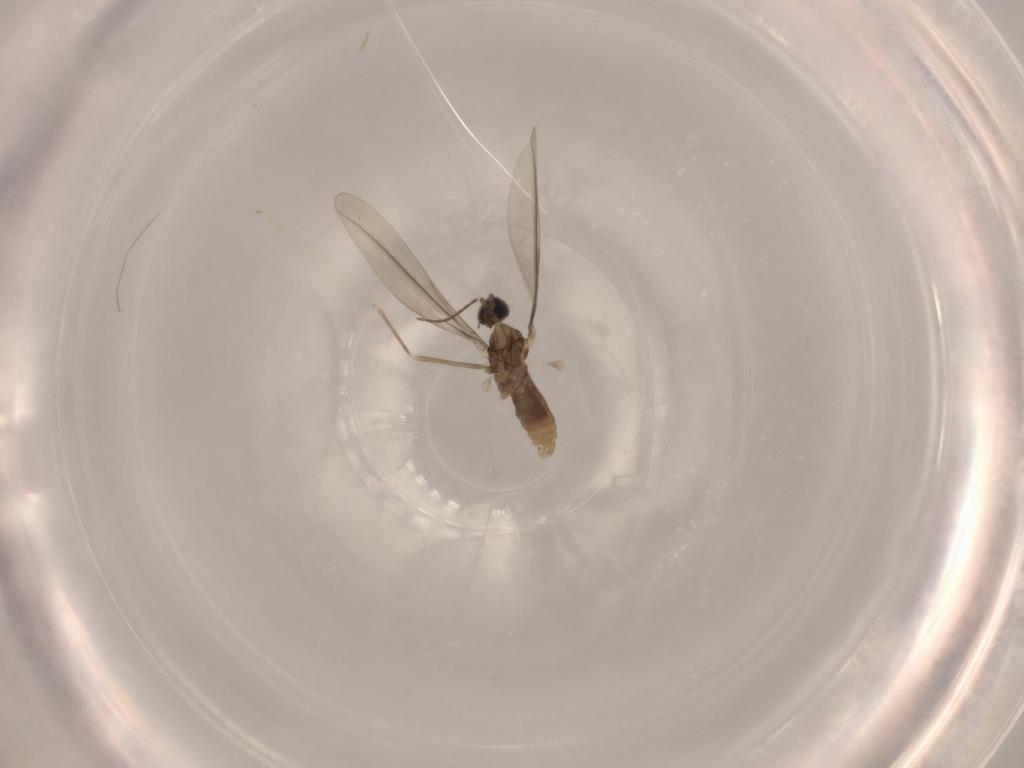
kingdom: Animalia
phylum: Arthropoda
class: Insecta
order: Diptera
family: Cecidomyiidae
